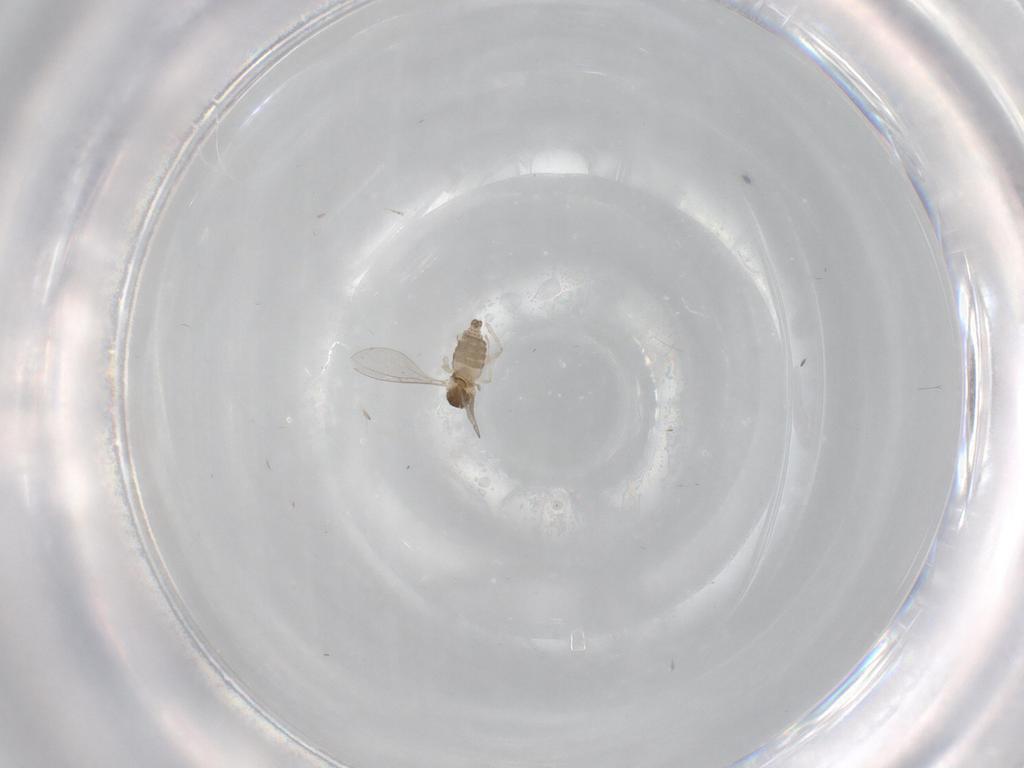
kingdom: Animalia
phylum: Arthropoda
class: Insecta
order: Diptera
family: Cecidomyiidae
